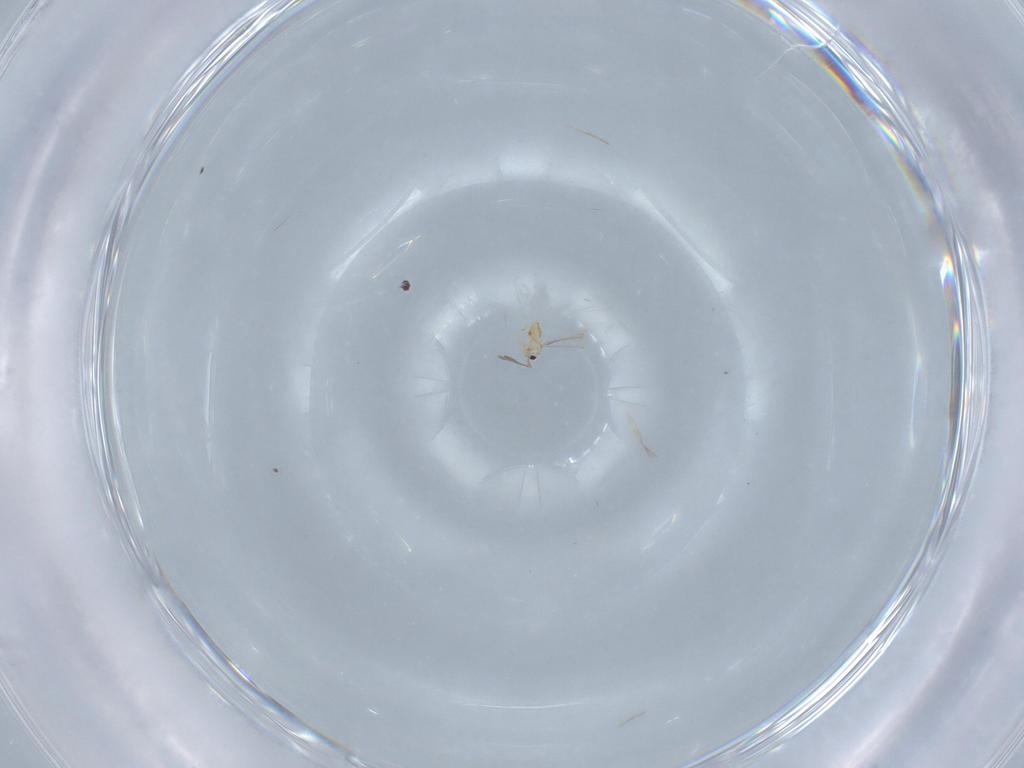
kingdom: Animalia
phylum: Arthropoda
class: Insecta
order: Hymenoptera
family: Mymaridae
